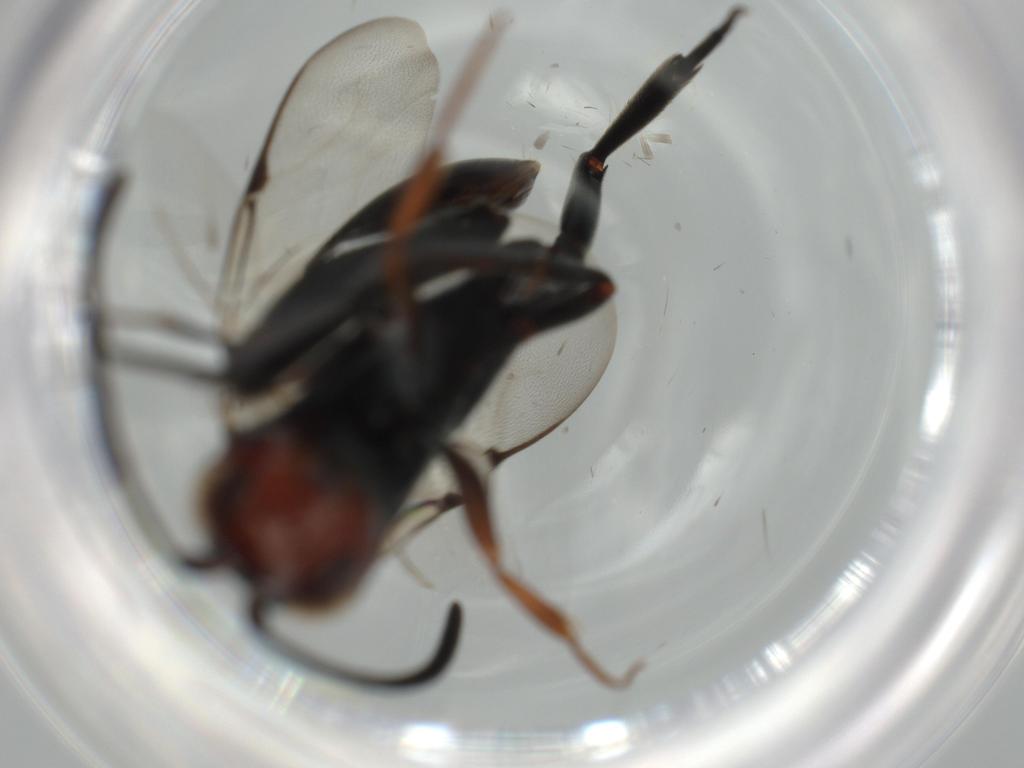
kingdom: Animalia
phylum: Arthropoda
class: Insecta
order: Hymenoptera
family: Evaniidae
